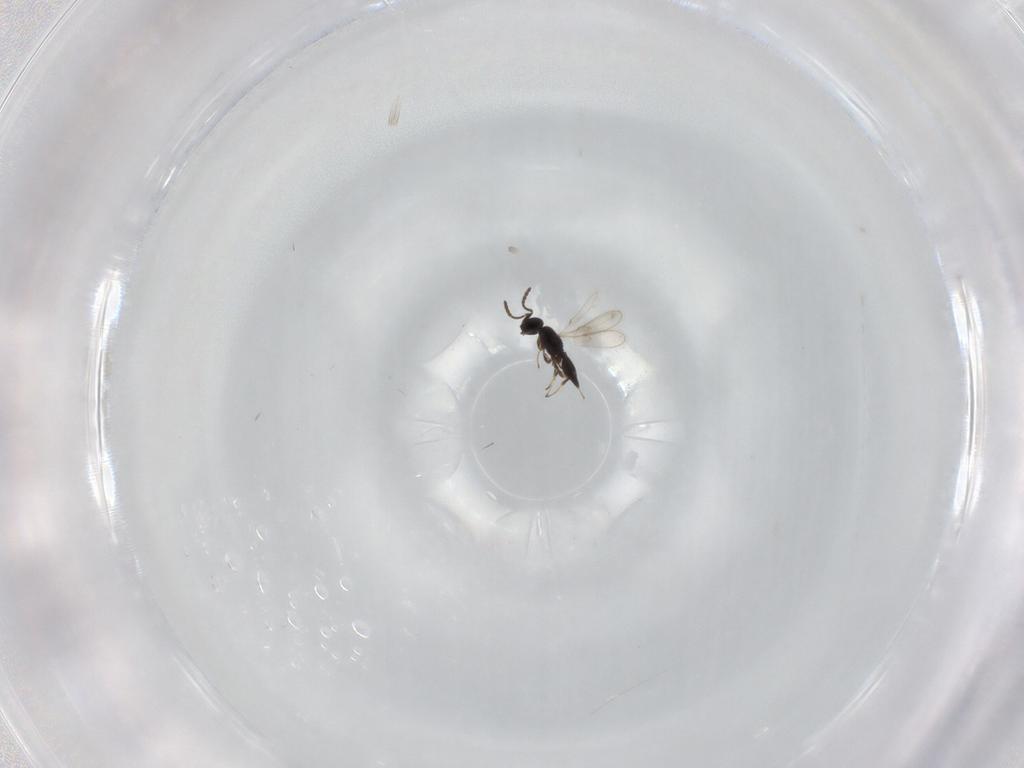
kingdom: Animalia
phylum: Arthropoda
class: Insecta
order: Hymenoptera
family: Scelionidae
